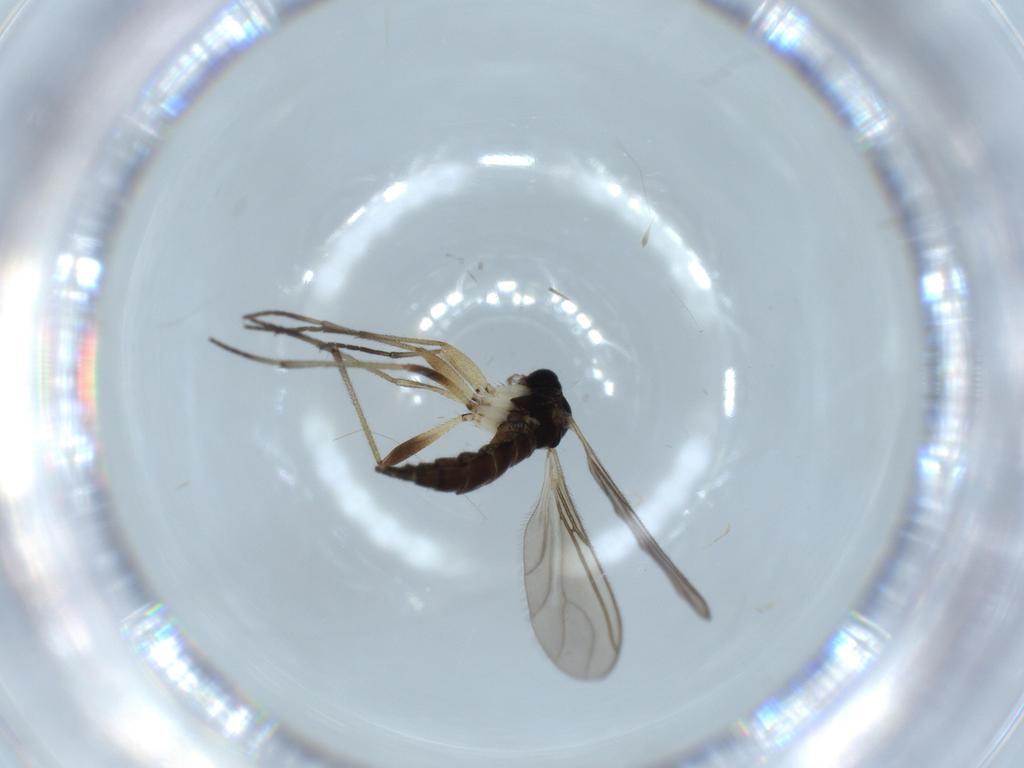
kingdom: Animalia
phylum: Arthropoda
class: Insecta
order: Diptera
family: Sciaridae
